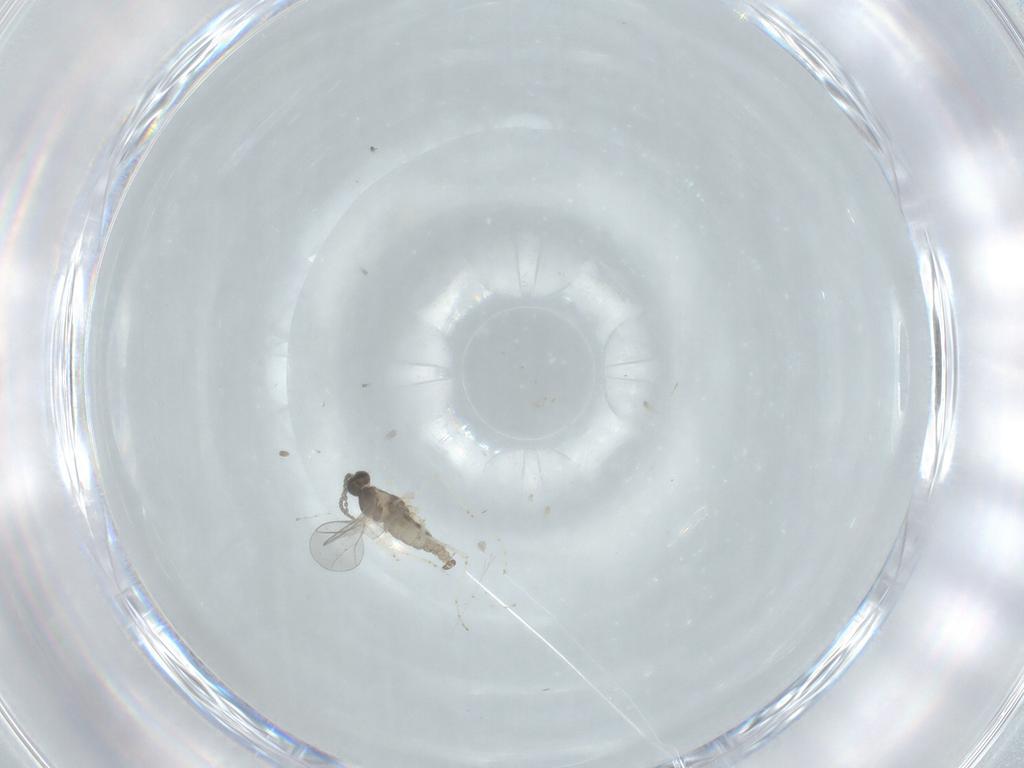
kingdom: Animalia
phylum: Arthropoda
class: Insecta
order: Diptera
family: Cecidomyiidae
